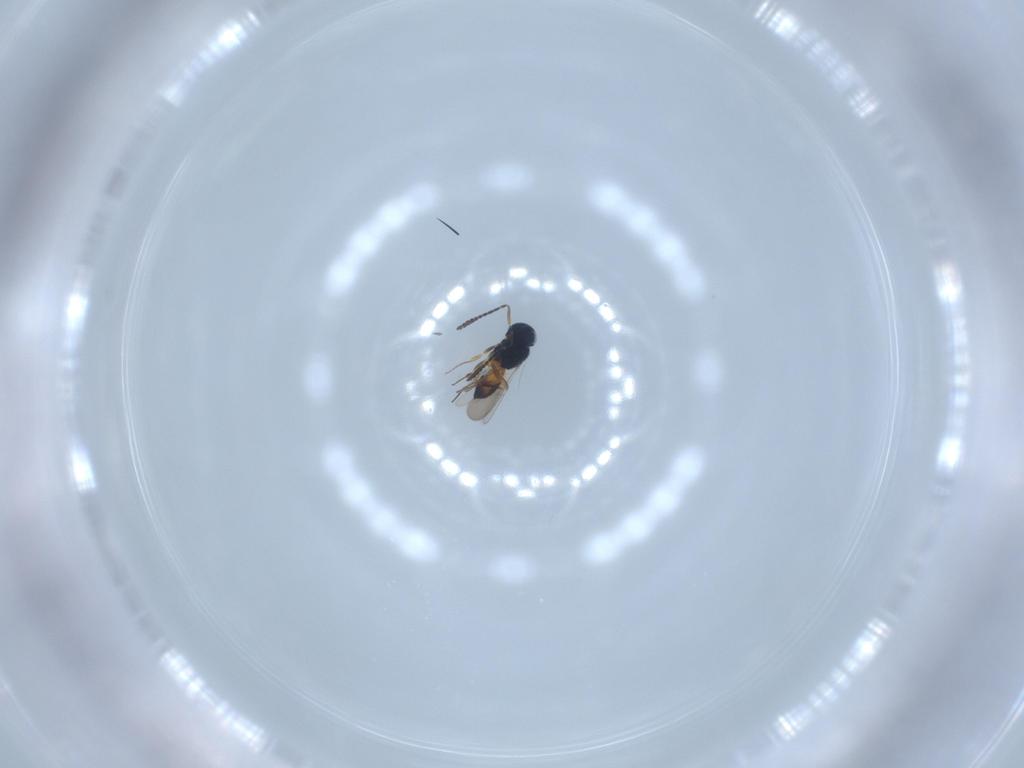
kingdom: Animalia
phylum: Arthropoda
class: Insecta
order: Hymenoptera
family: Scelionidae
